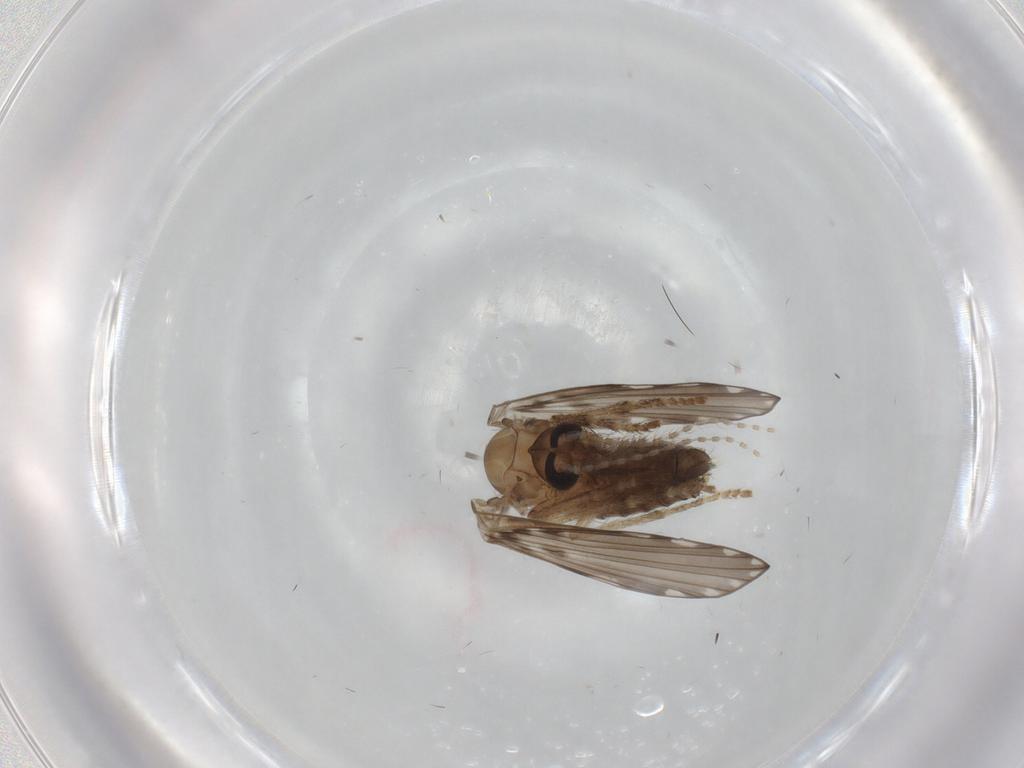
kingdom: Animalia
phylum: Arthropoda
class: Insecta
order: Diptera
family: Psychodidae
